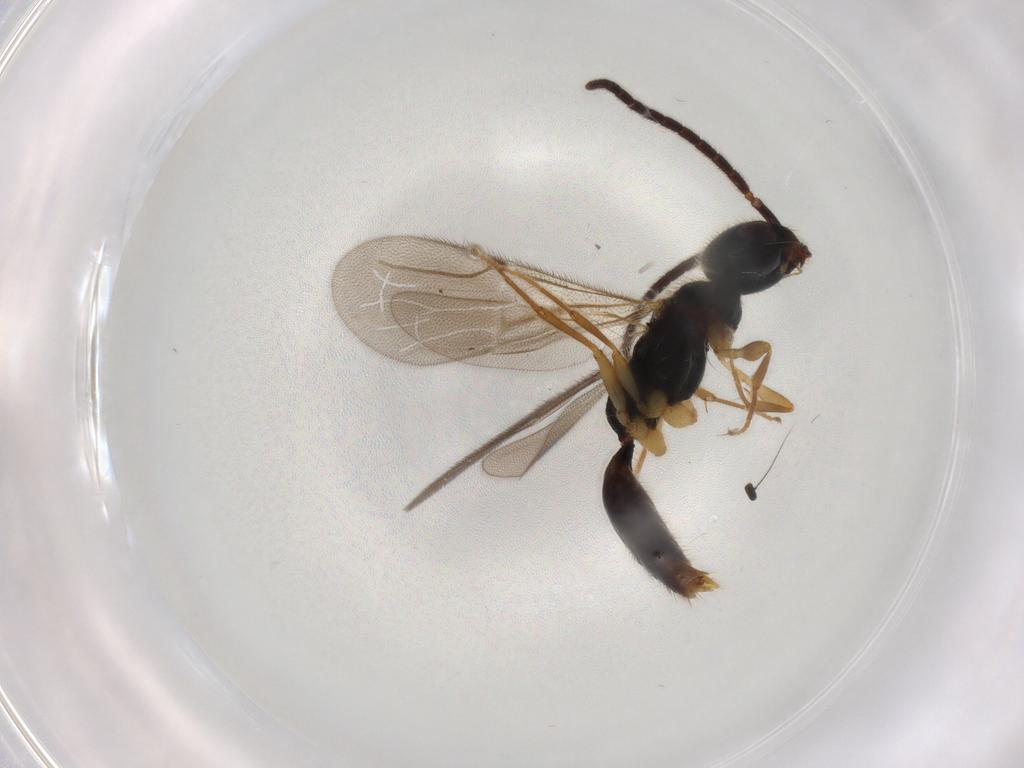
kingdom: Animalia
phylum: Arthropoda
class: Insecta
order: Hymenoptera
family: Bethylidae
